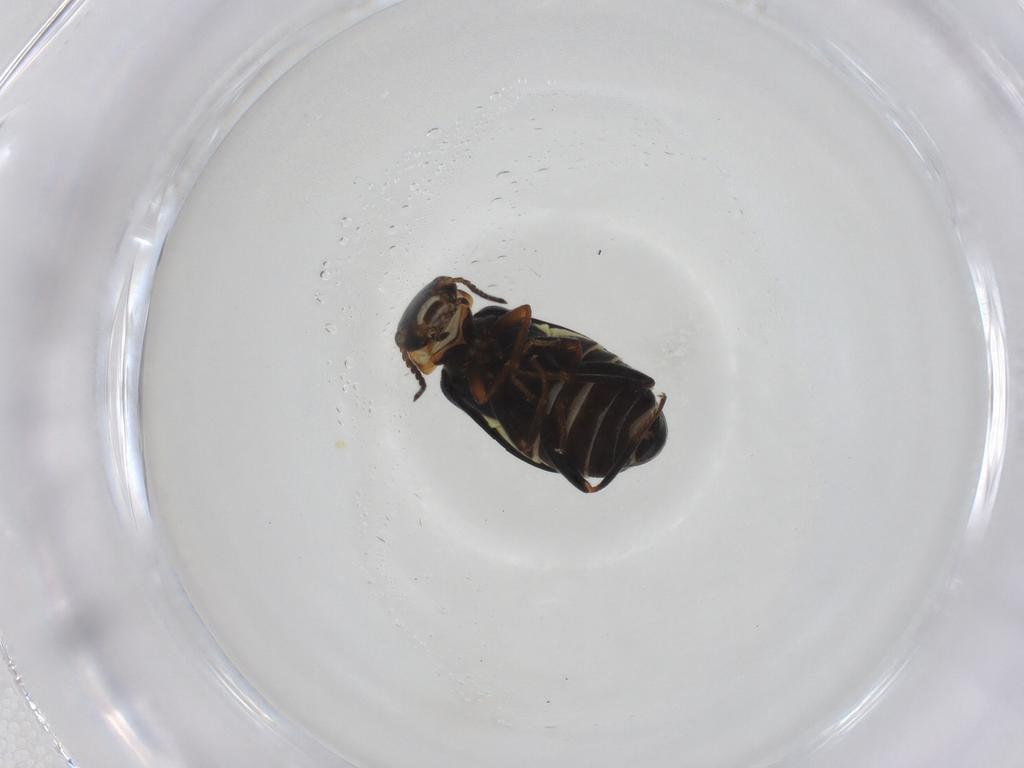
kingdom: Animalia
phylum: Arthropoda
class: Insecta
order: Coleoptera
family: Melyridae
